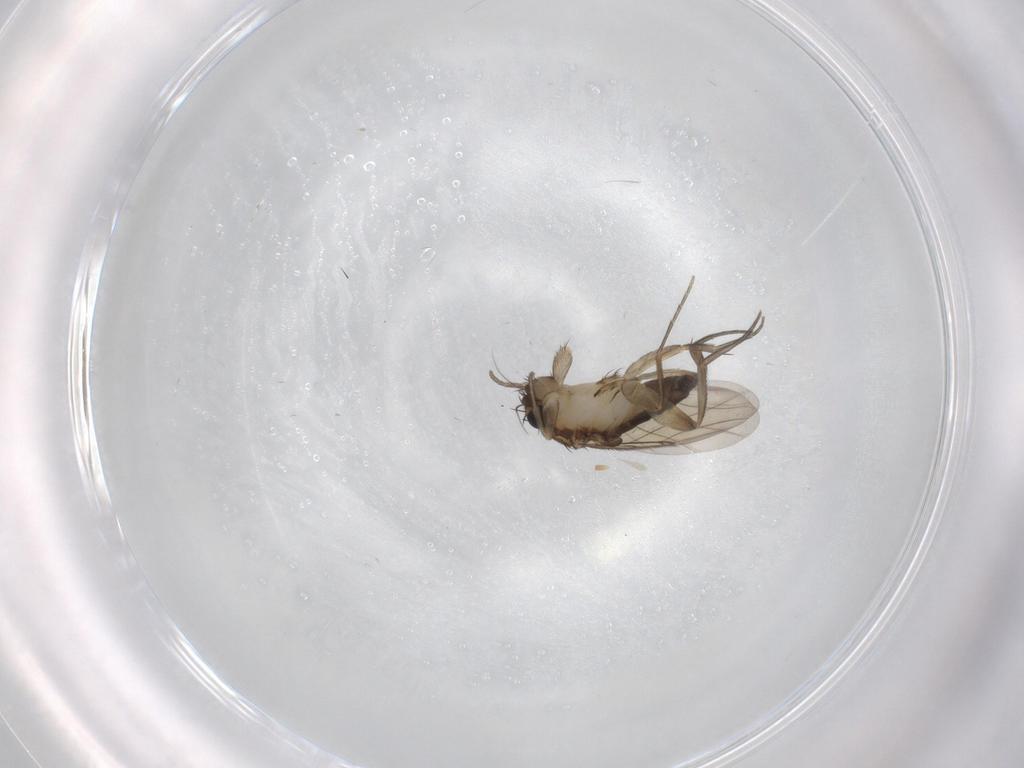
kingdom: Animalia
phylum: Arthropoda
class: Insecta
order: Diptera
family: Phoridae
